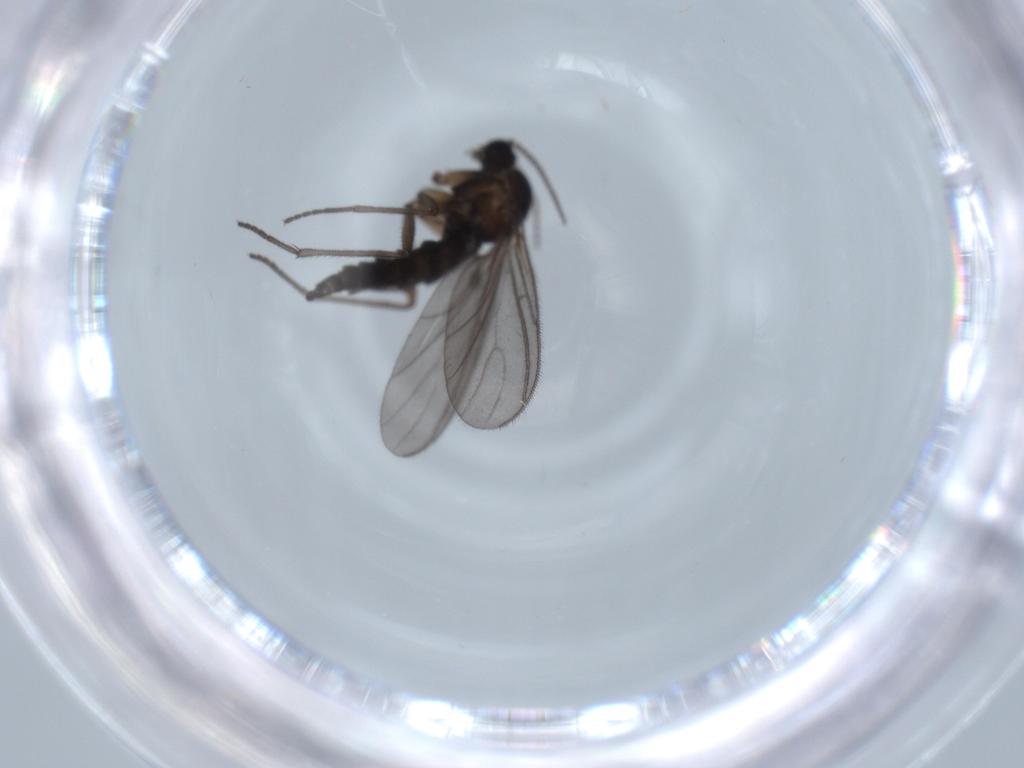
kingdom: Animalia
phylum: Arthropoda
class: Insecta
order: Diptera
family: Sciaridae
